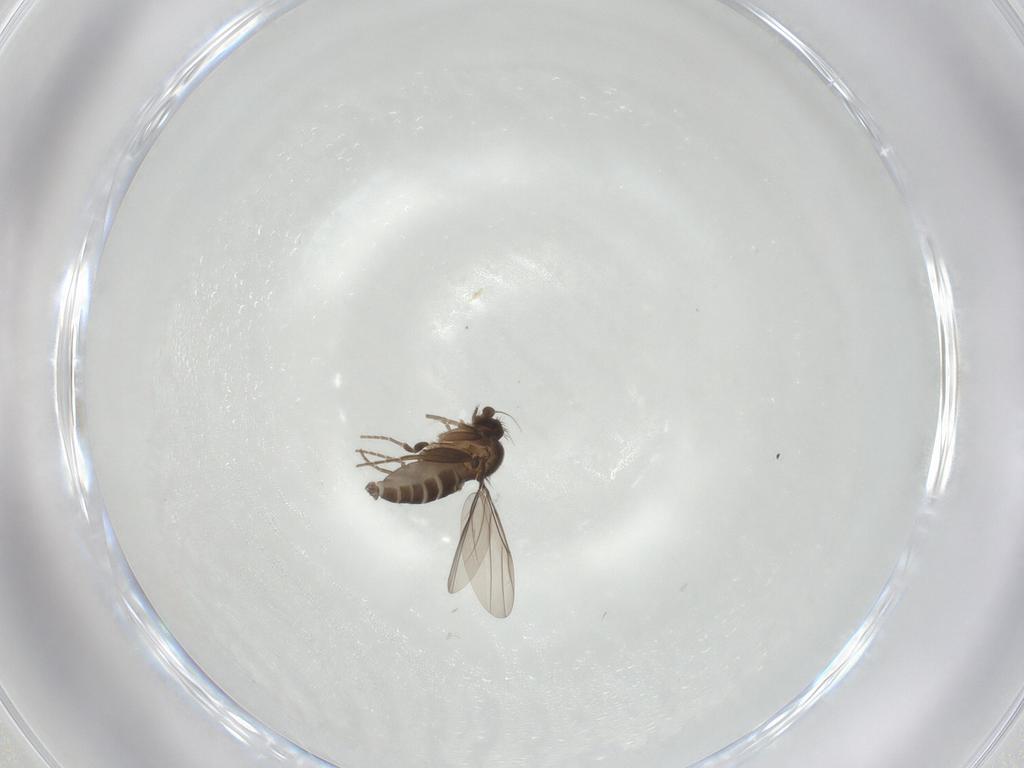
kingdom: Animalia
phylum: Arthropoda
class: Insecta
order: Diptera
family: Phoridae
